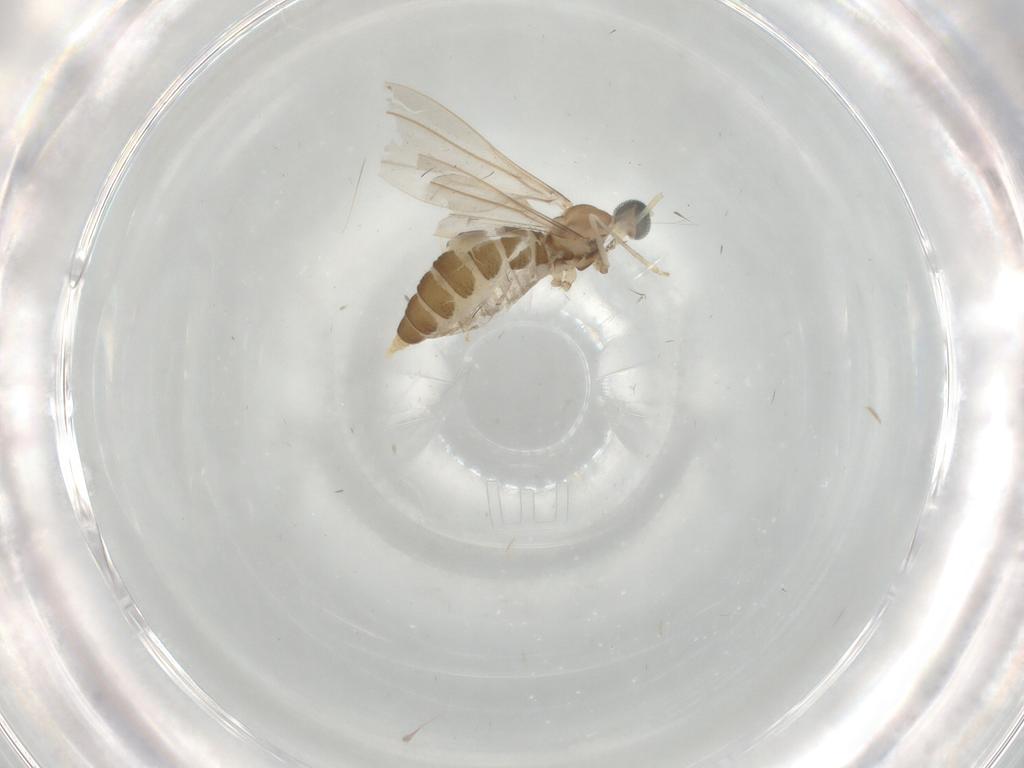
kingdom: Animalia
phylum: Arthropoda
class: Insecta
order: Diptera
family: Cecidomyiidae
